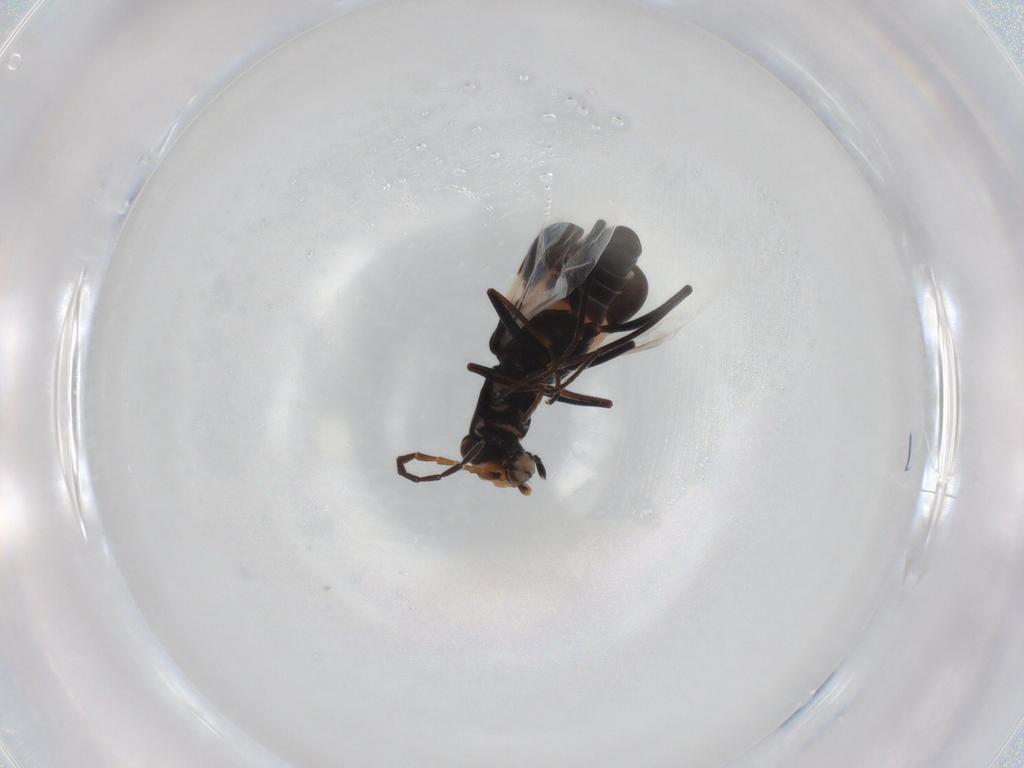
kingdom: Animalia
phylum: Arthropoda
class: Insecta
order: Coleoptera
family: Melyridae
